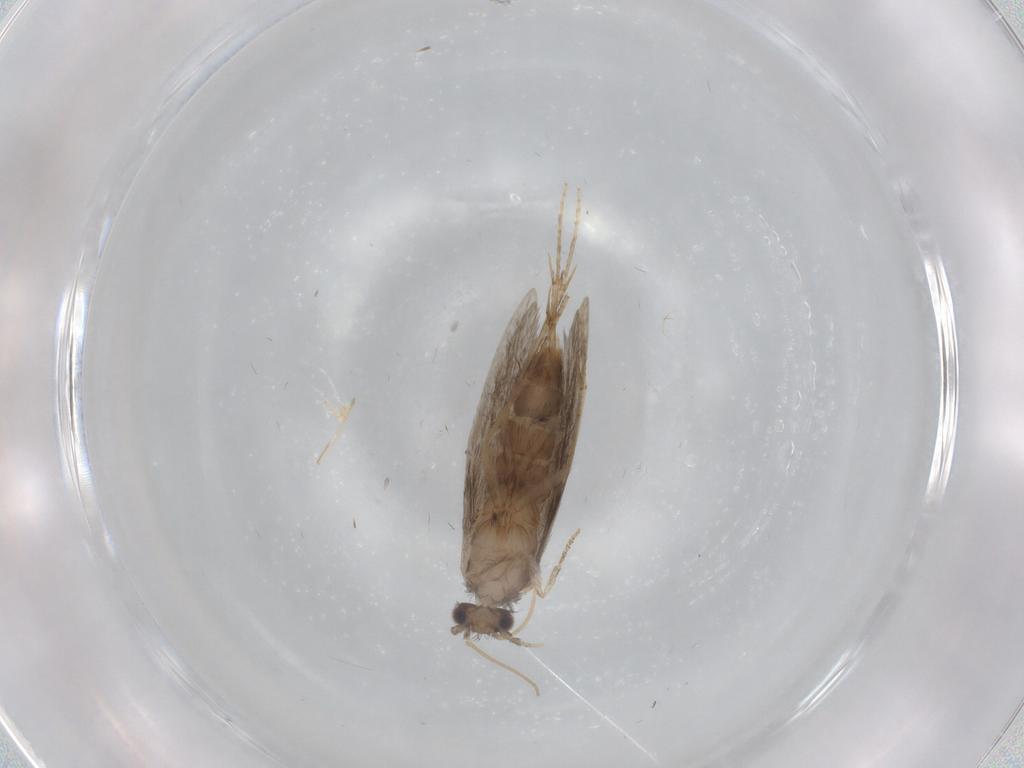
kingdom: Animalia
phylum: Arthropoda
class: Insecta
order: Trichoptera
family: Hydroptilidae
